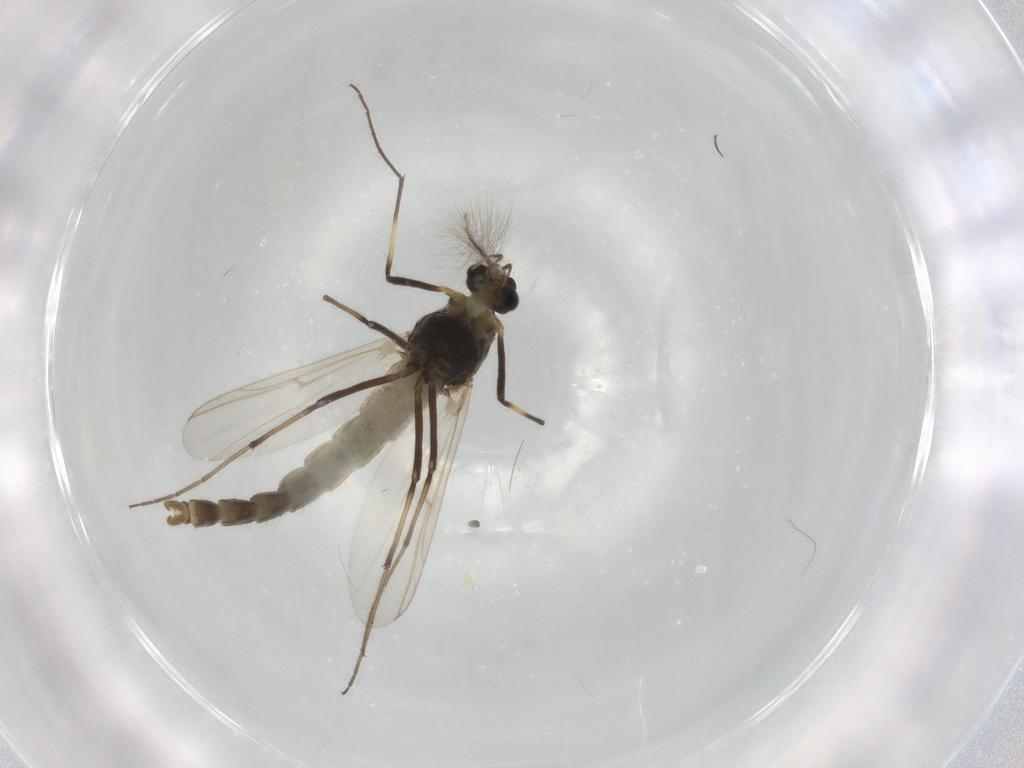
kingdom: Animalia
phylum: Arthropoda
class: Insecta
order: Diptera
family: Chironomidae
